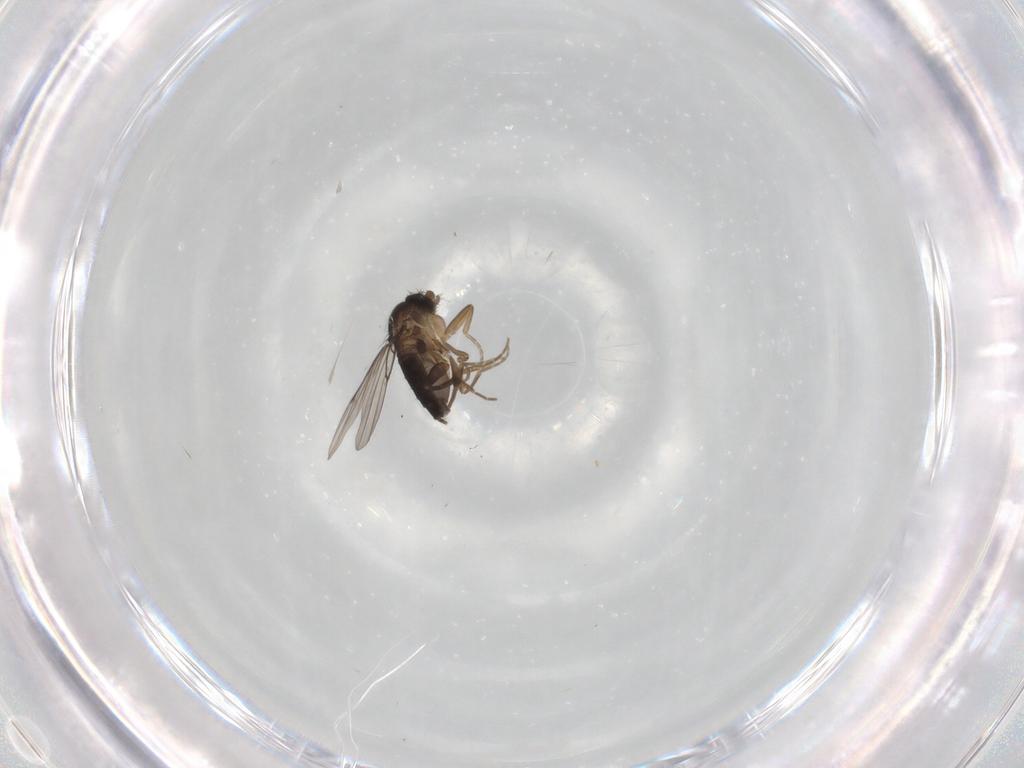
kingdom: Animalia
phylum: Arthropoda
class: Insecta
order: Diptera
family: Phoridae
